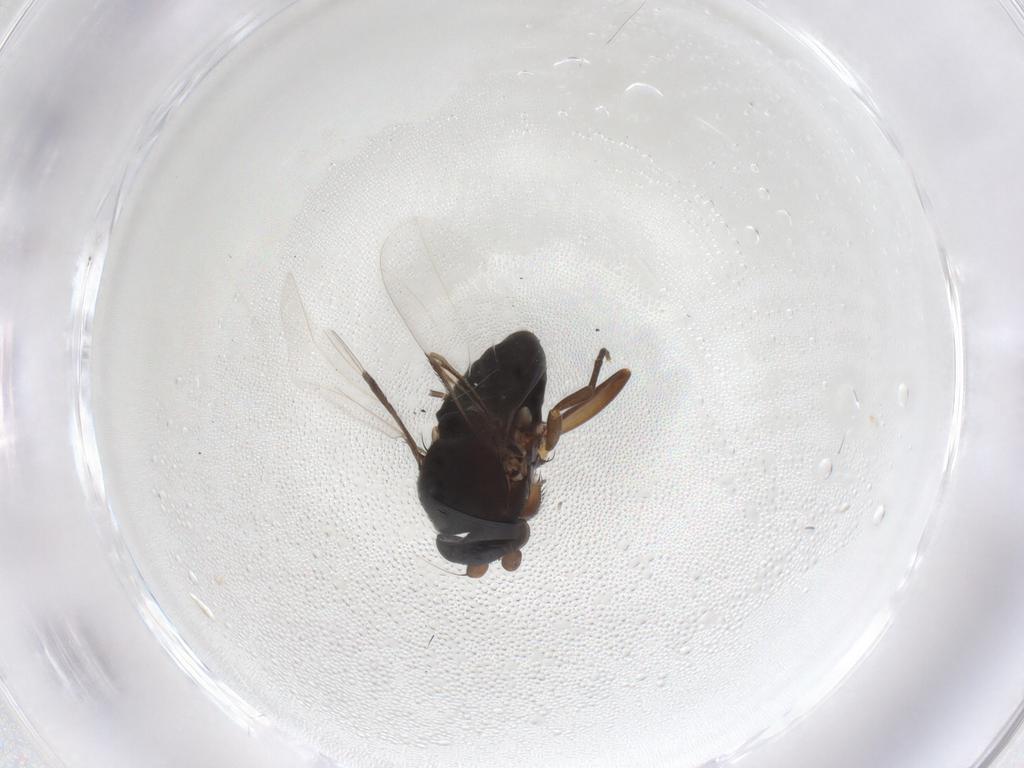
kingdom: Animalia
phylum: Arthropoda
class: Insecta
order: Diptera
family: Phoridae
